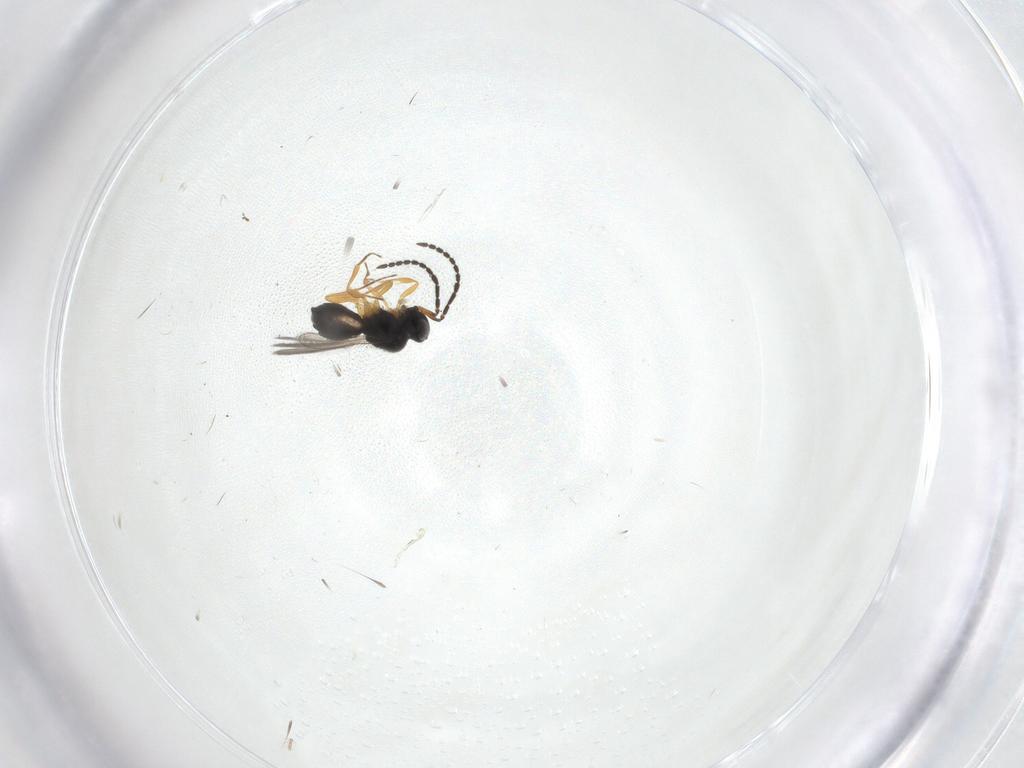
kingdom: Animalia
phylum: Arthropoda
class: Insecta
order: Hymenoptera
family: Scelionidae
